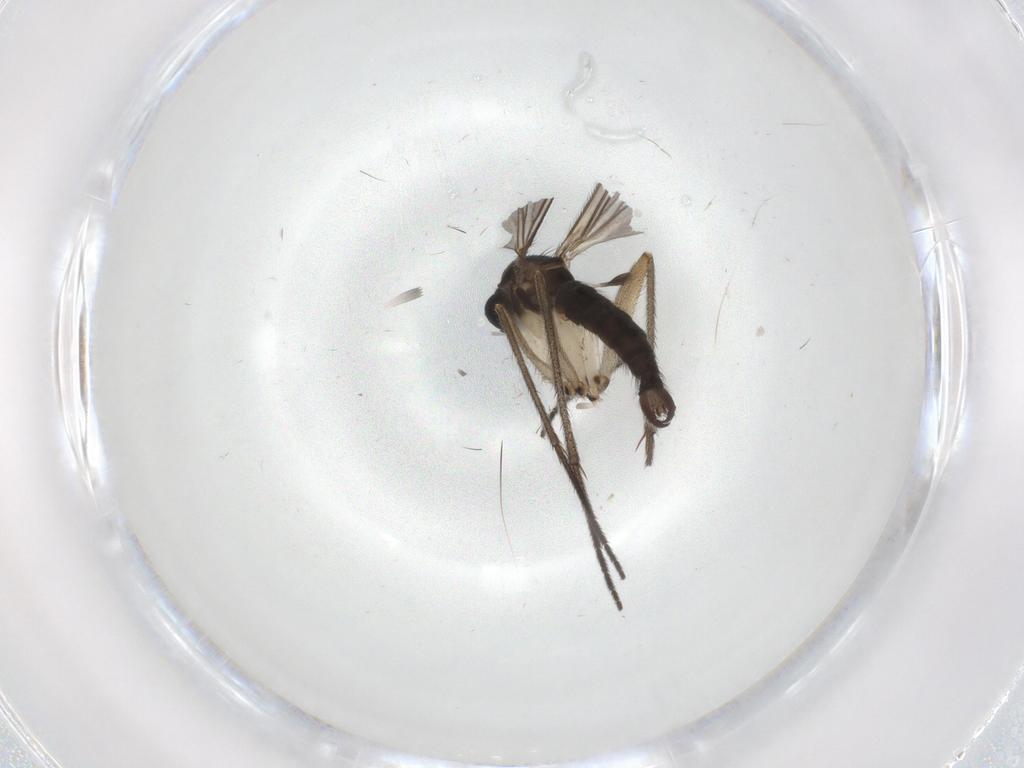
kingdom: Animalia
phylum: Arthropoda
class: Insecta
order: Diptera
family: Sciaridae
